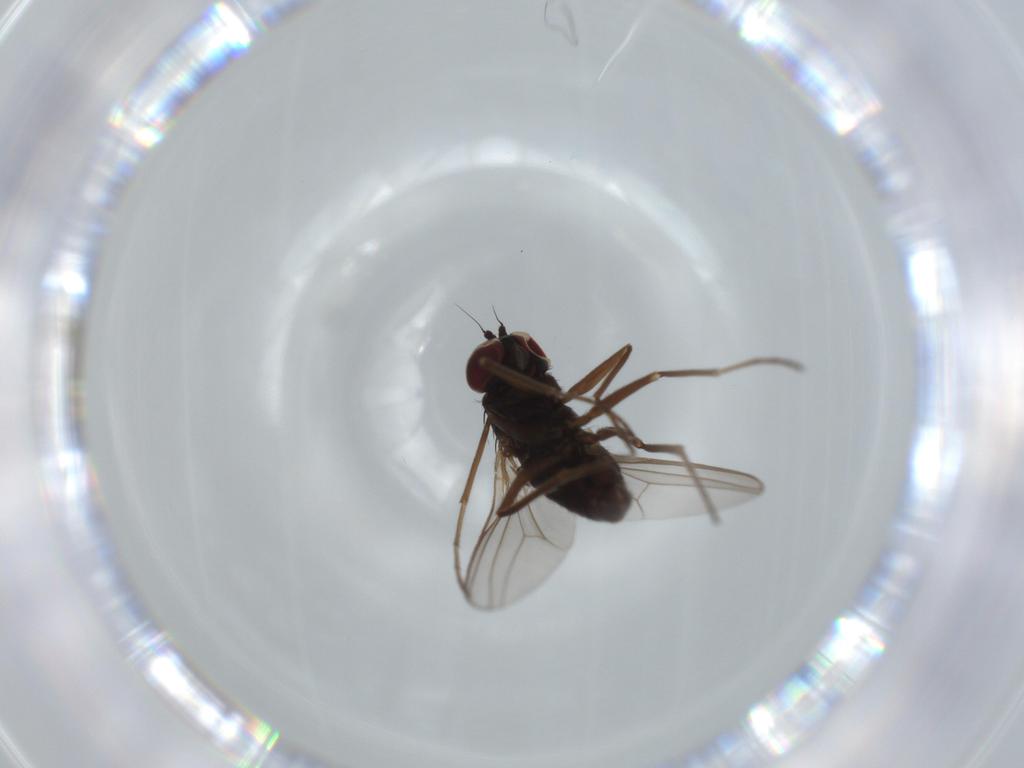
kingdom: Animalia
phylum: Arthropoda
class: Insecta
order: Diptera
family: Dolichopodidae
